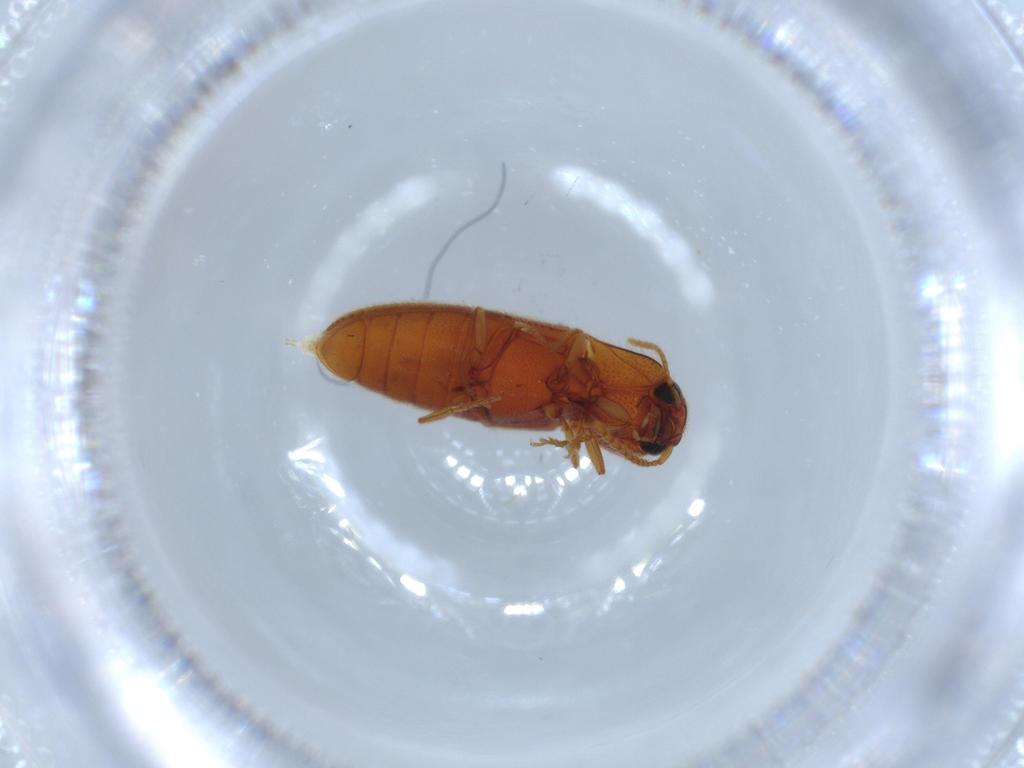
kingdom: Animalia
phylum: Arthropoda
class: Insecta
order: Coleoptera
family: Elateridae
